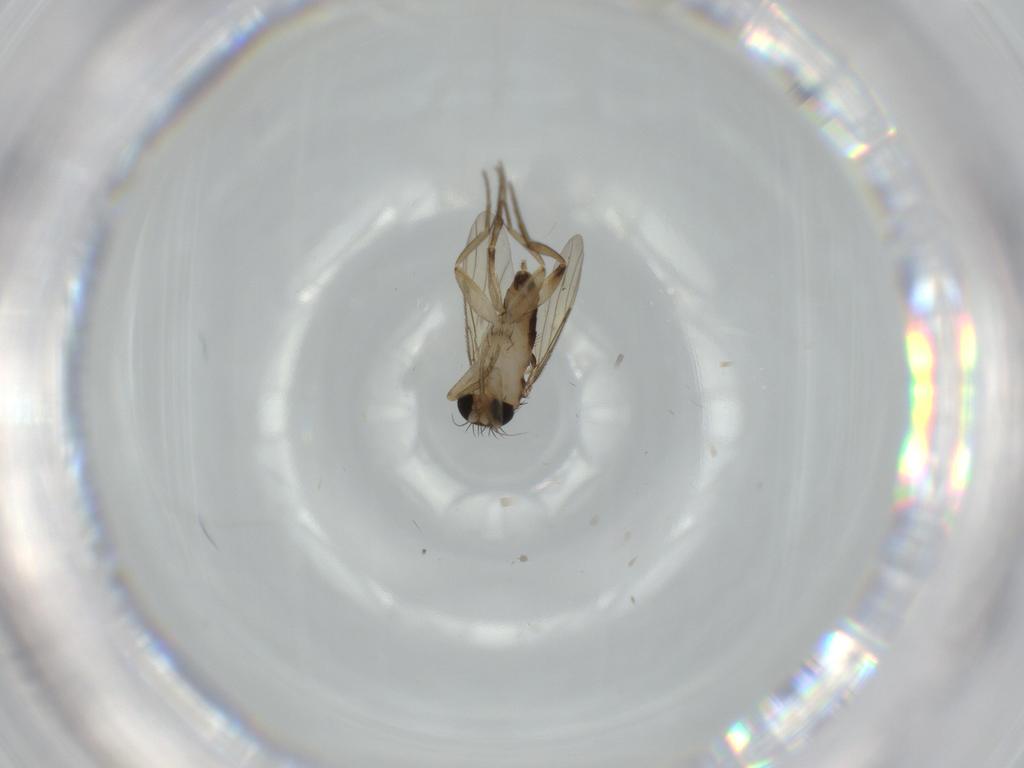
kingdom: Animalia
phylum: Arthropoda
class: Insecta
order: Diptera
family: Phoridae
